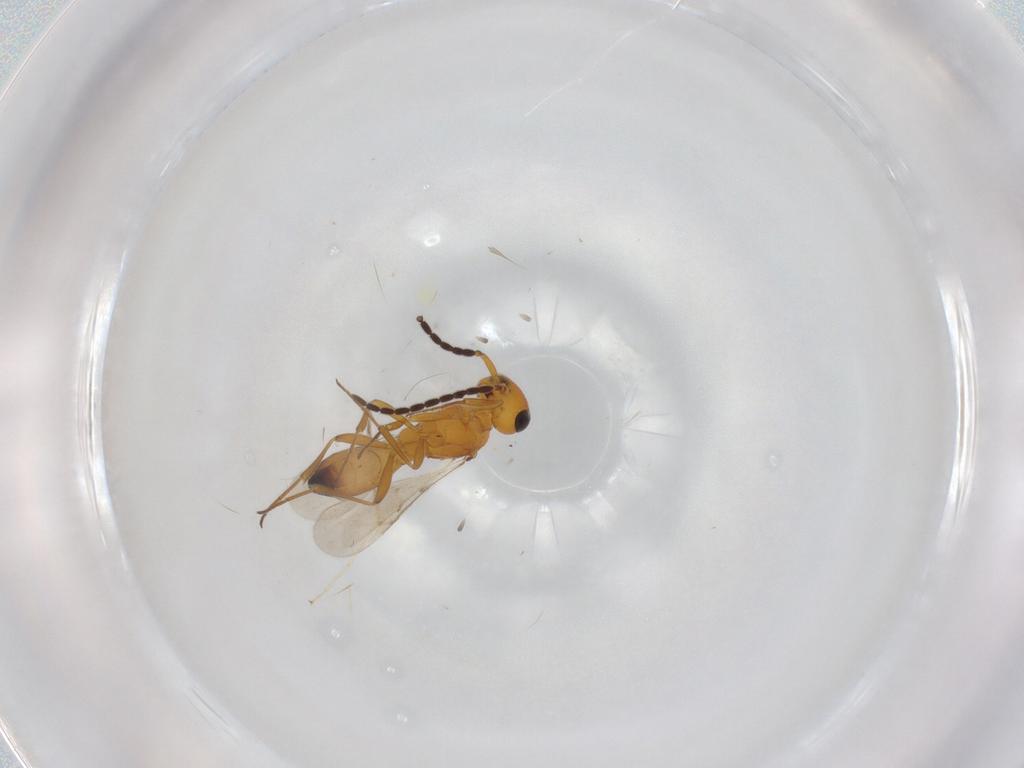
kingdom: Animalia
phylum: Arthropoda
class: Insecta
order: Hymenoptera
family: Scelionidae
